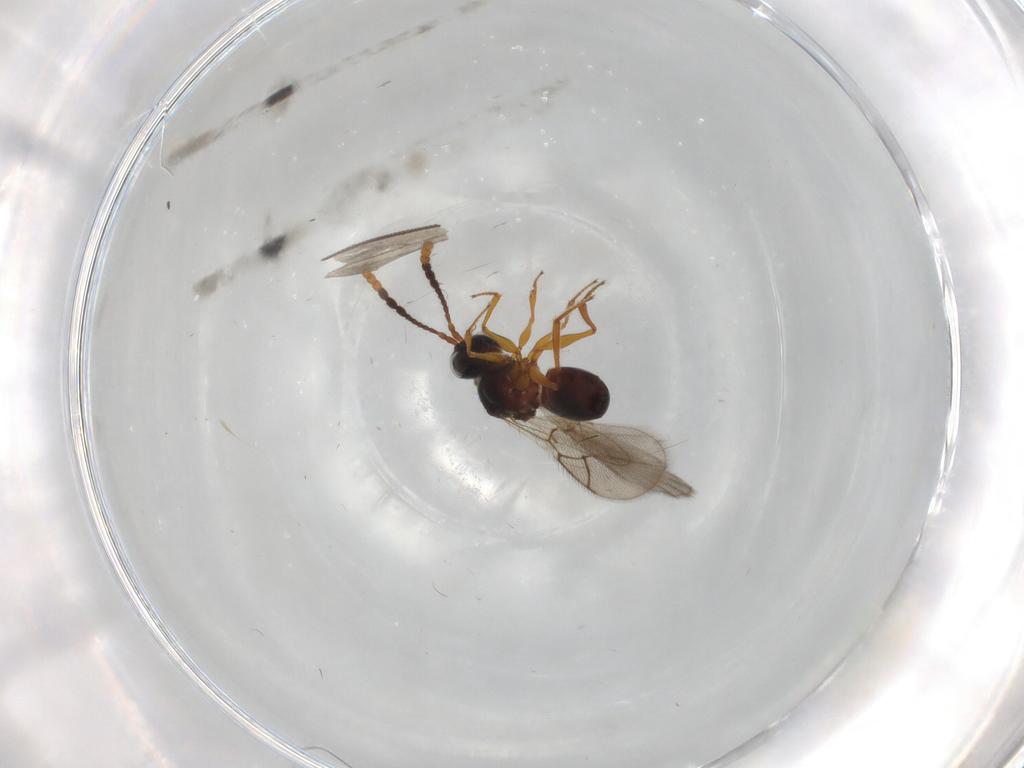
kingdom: Animalia
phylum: Arthropoda
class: Insecta
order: Hymenoptera
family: Figitidae
